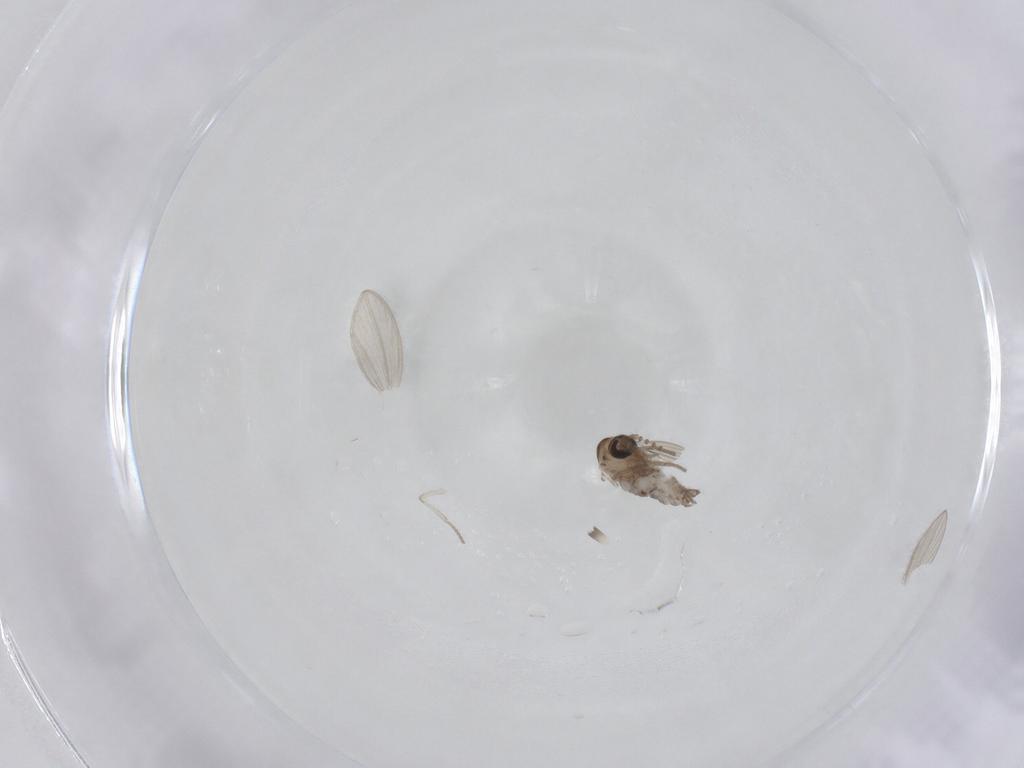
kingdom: Animalia
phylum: Arthropoda
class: Insecta
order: Diptera
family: Psychodidae
